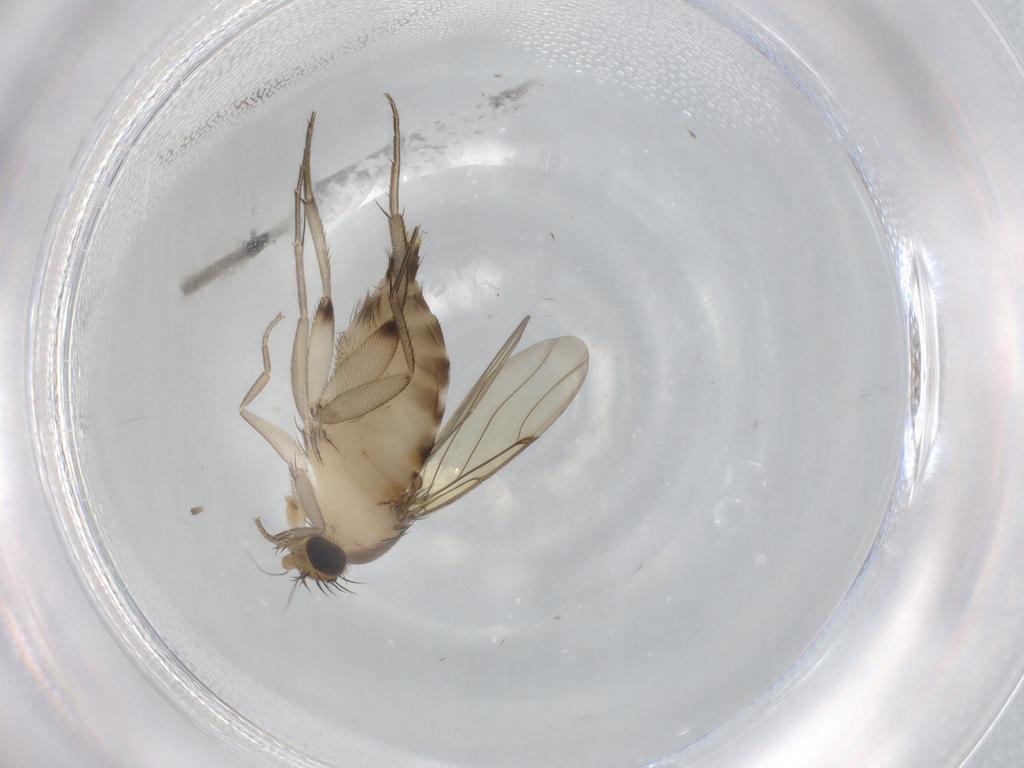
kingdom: Animalia
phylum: Arthropoda
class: Insecta
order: Diptera
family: Phoridae
